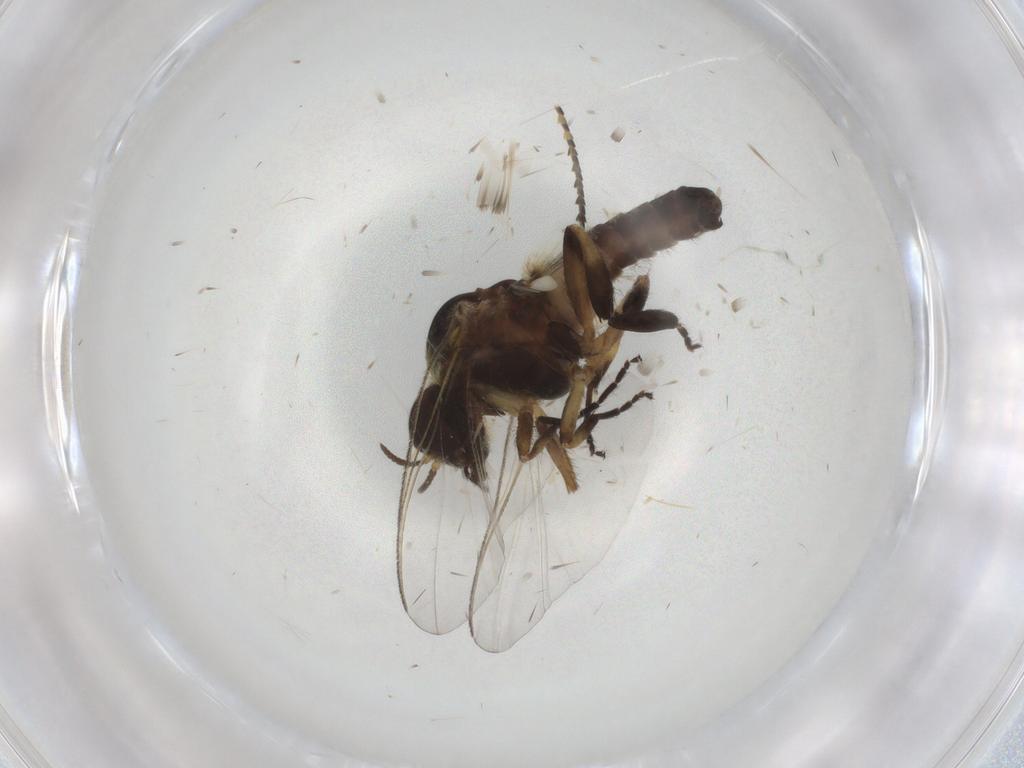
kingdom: Animalia
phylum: Arthropoda
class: Insecta
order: Diptera
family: Simuliidae
